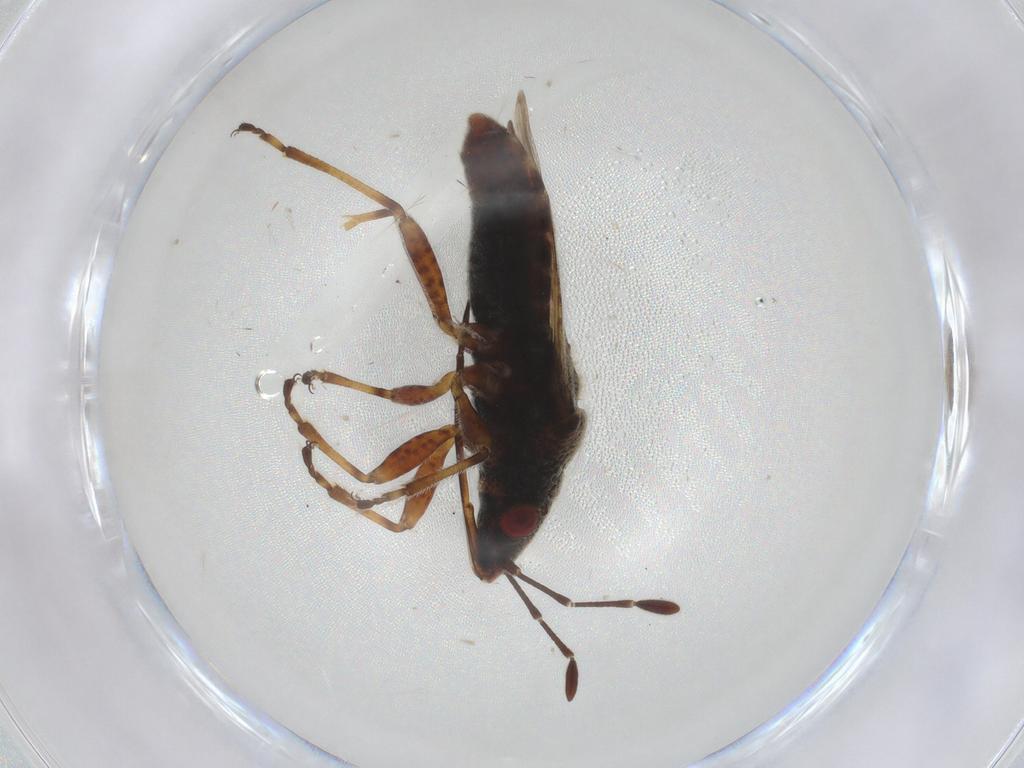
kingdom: Animalia
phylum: Arthropoda
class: Insecta
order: Hemiptera
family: Lygaeidae
